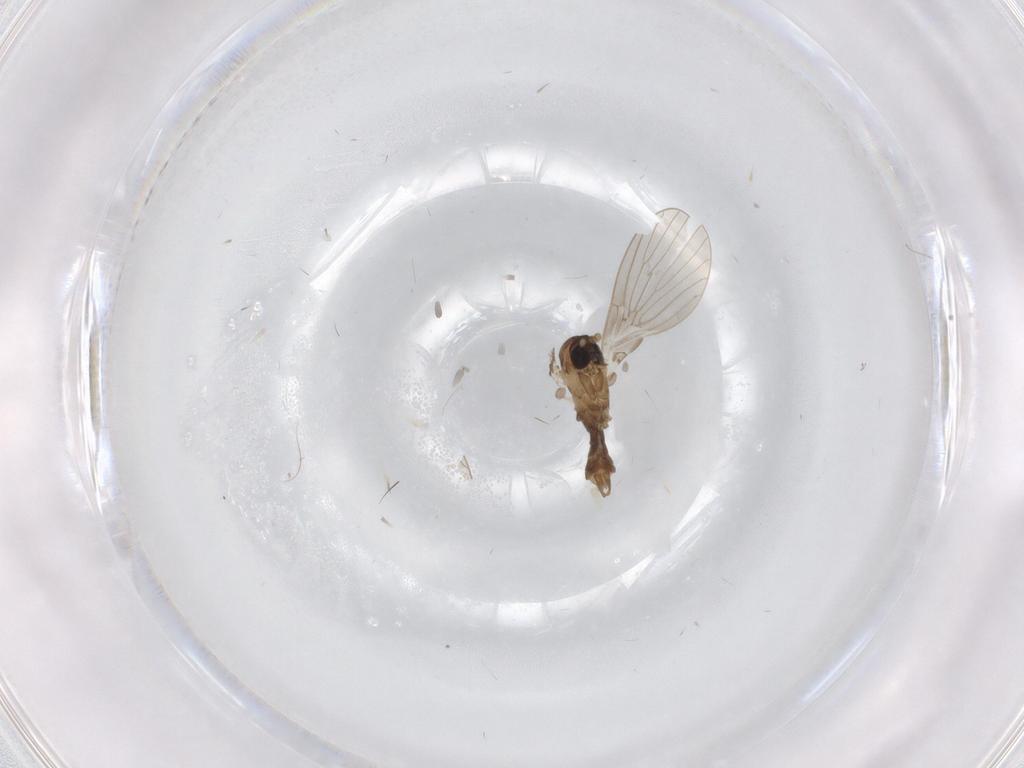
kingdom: Animalia
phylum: Arthropoda
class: Insecta
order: Diptera
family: Psychodidae
